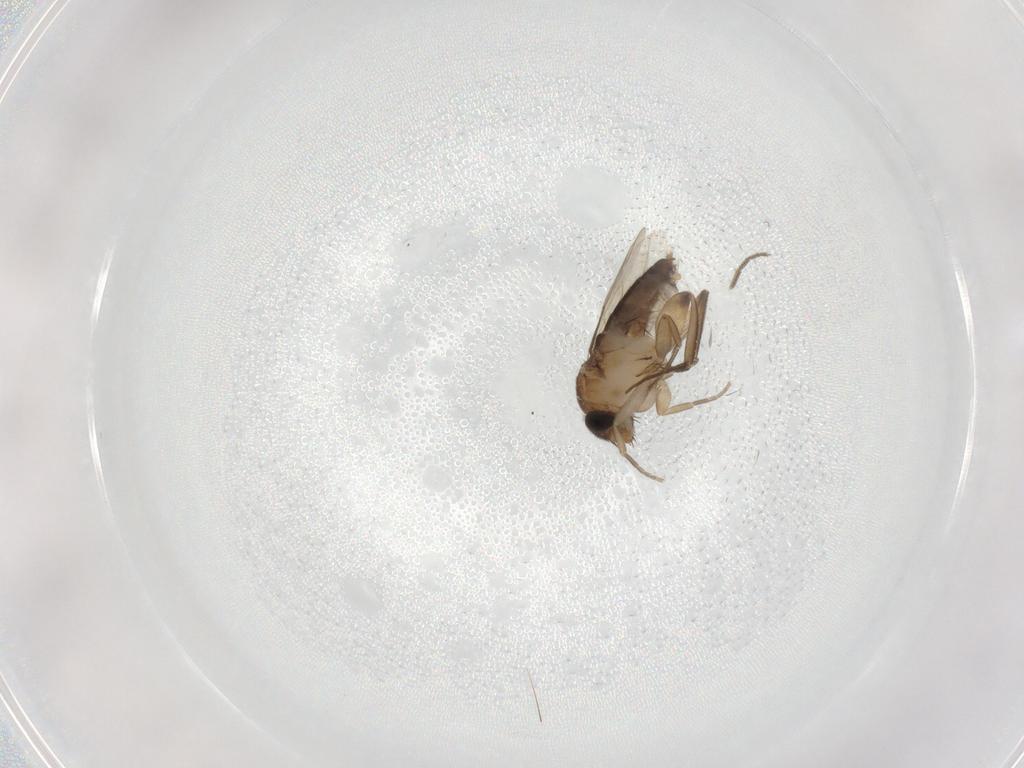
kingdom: Animalia
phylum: Arthropoda
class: Insecta
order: Diptera
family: Phoridae
